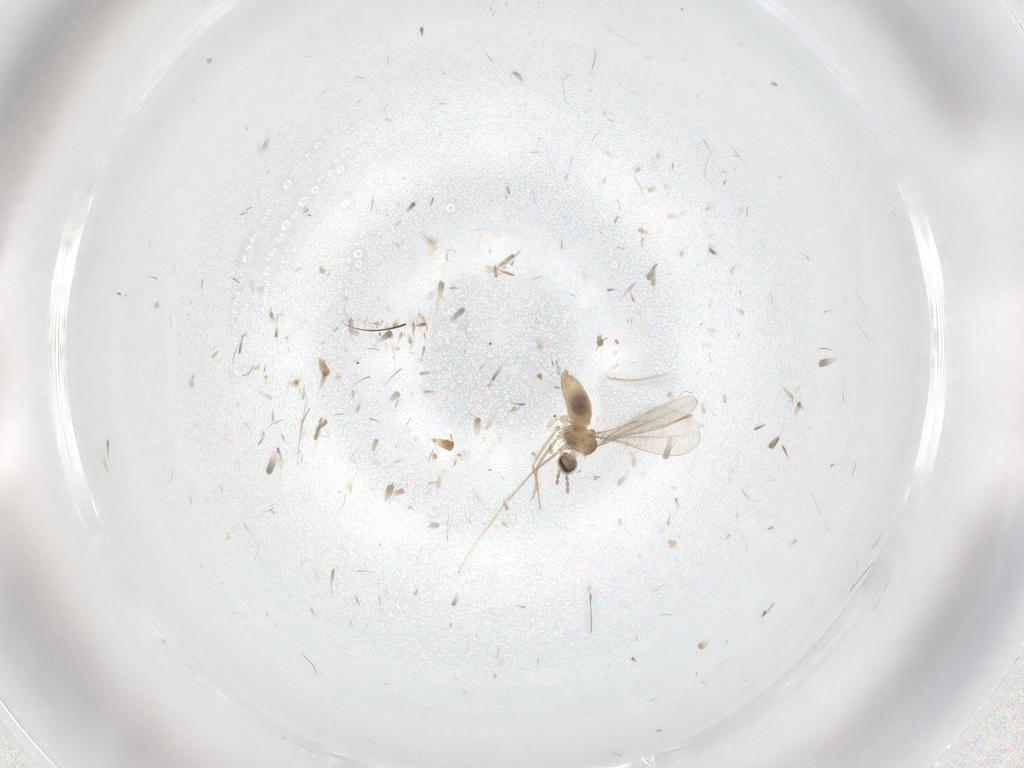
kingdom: Animalia
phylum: Arthropoda
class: Insecta
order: Diptera
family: Cecidomyiidae
